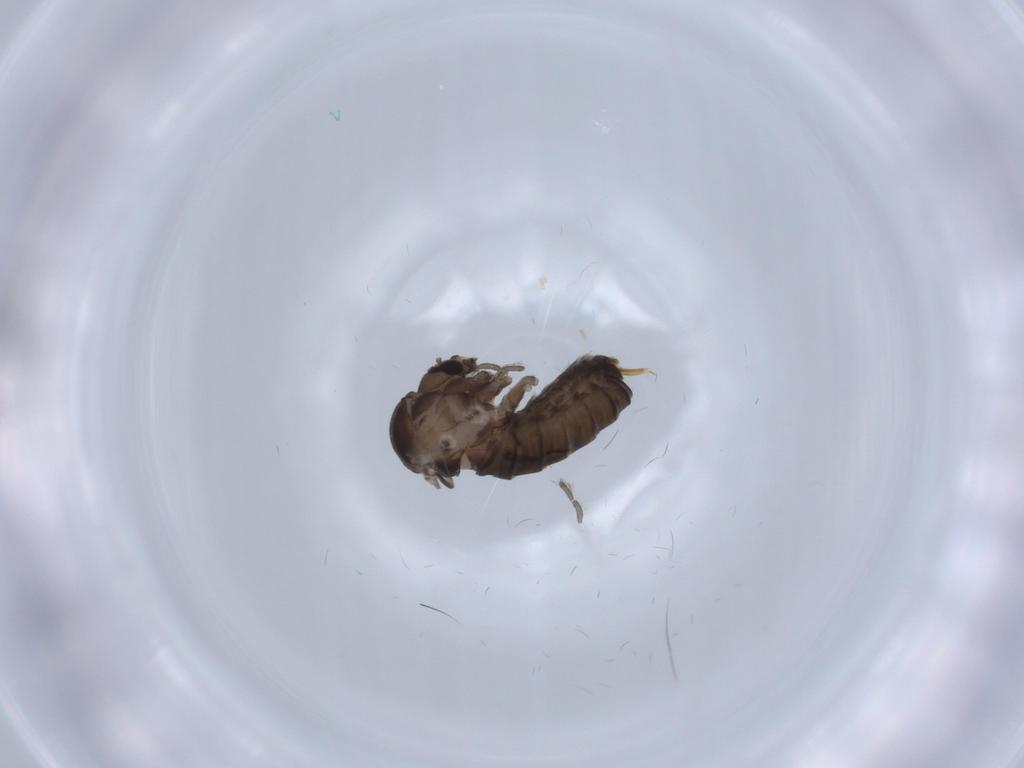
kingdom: Animalia
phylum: Arthropoda
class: Insecta
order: Diptera
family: Psychodidae
